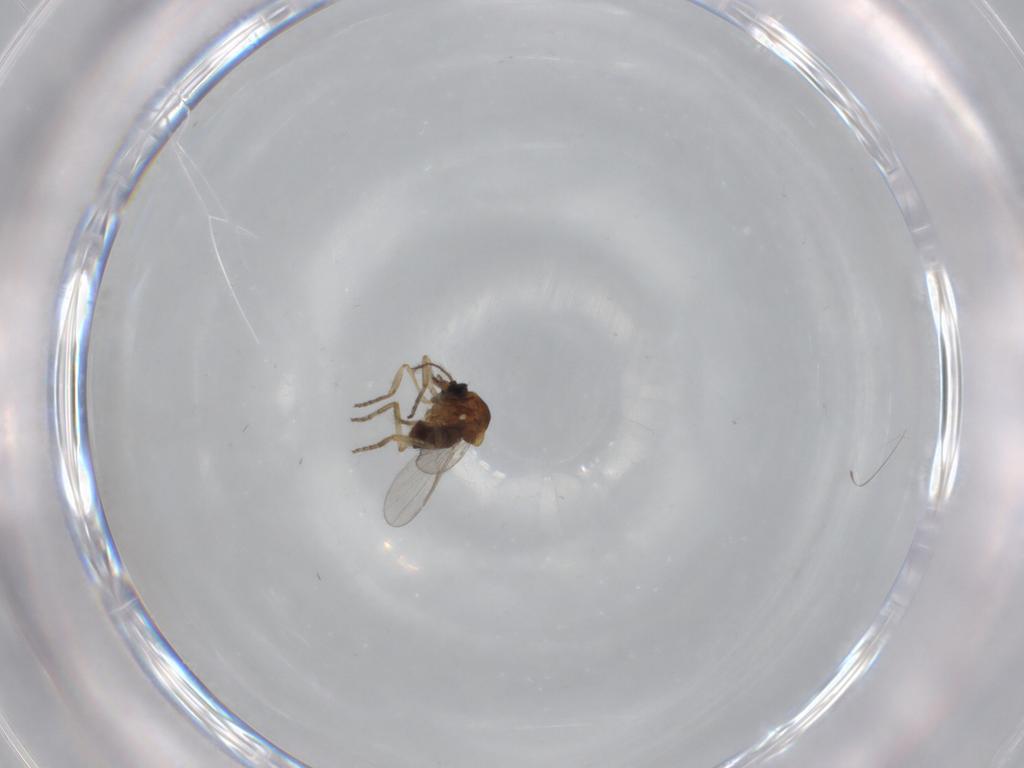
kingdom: Animalia
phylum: Arthropoda
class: Insecta
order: Diptera
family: Ceratopogonidae
